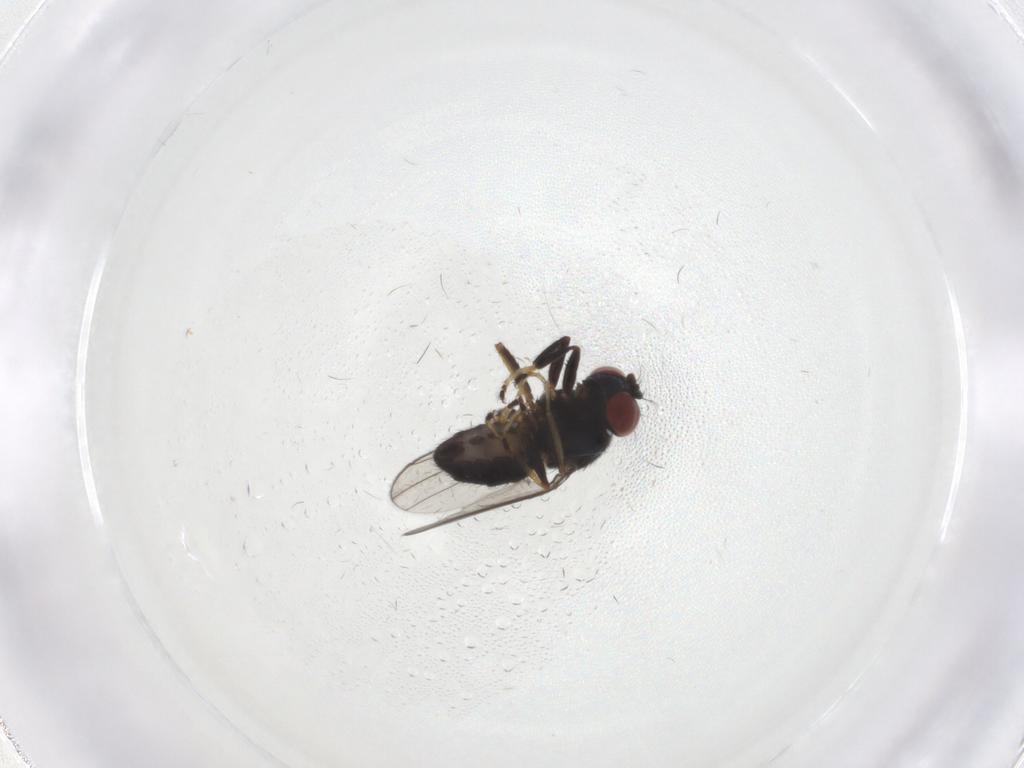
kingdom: Animalia
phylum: Arthropoda
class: Insecta
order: Diptera
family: Ephydridae
